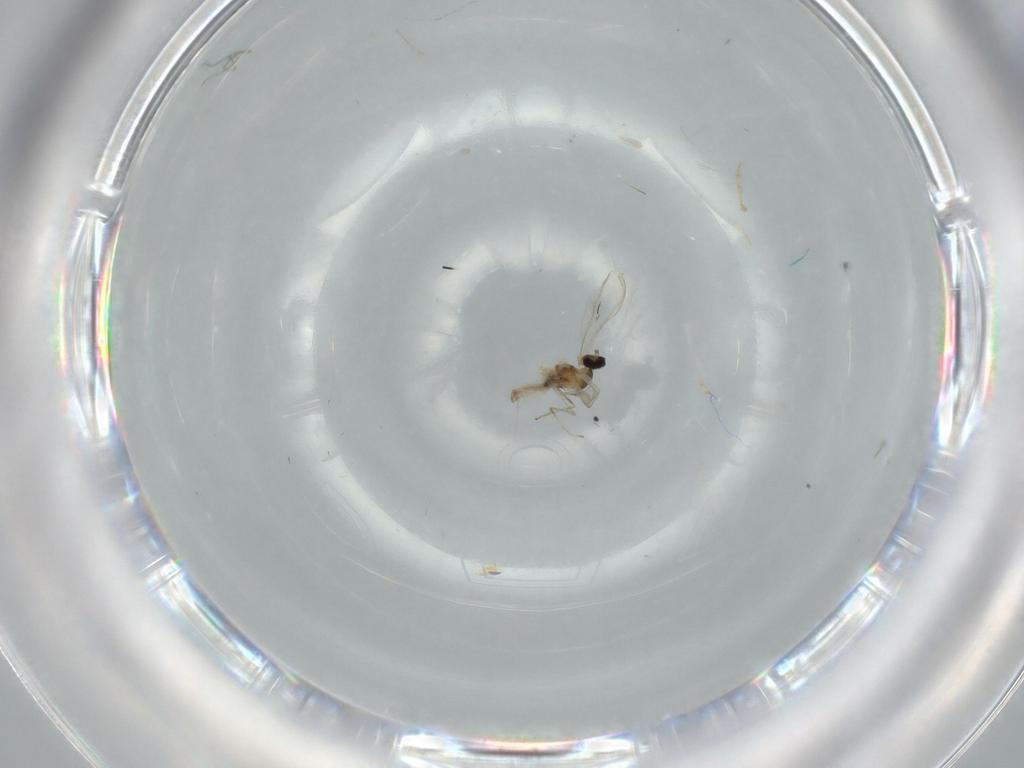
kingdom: Animalia
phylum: Arthropoda
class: Insecta
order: Diptera
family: Cecidomyiidae
